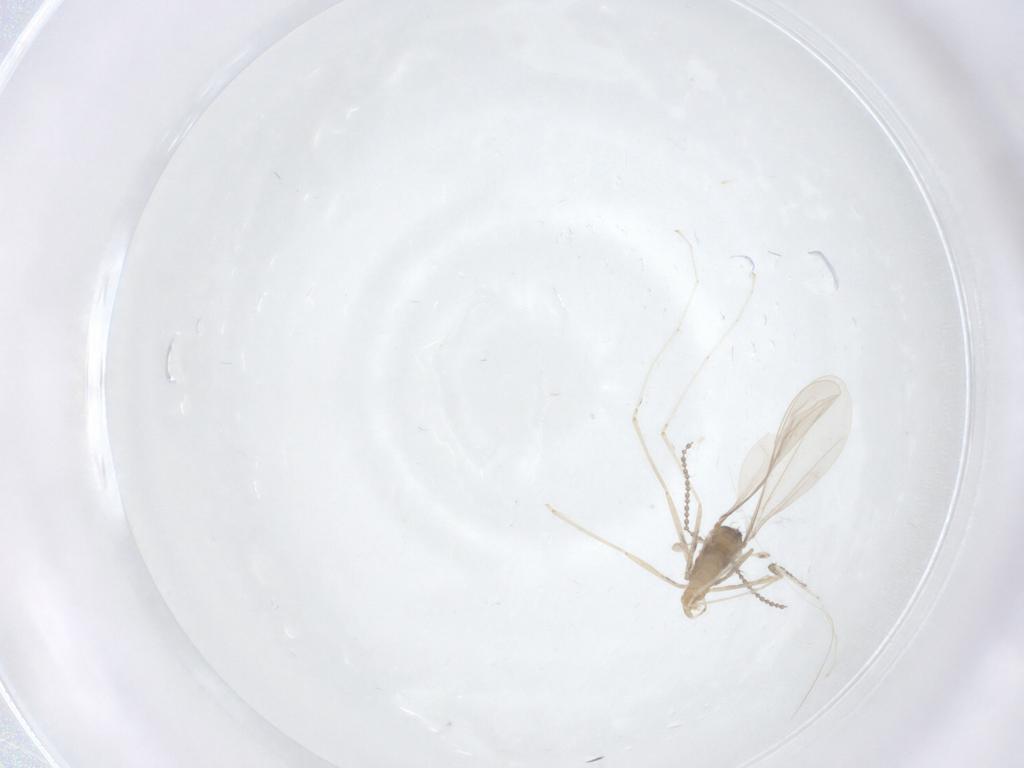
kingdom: Animalia
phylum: Arthropoda
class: Insecta
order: Diptera
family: Cecidomyiidae
